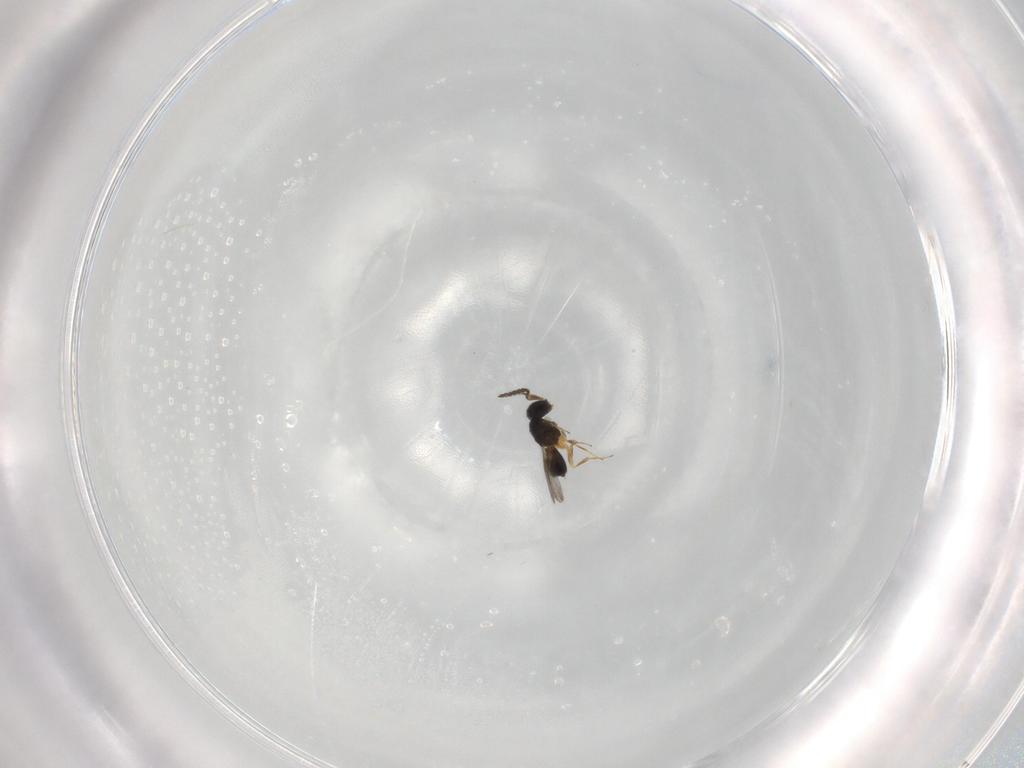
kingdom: Animalia
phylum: Arthropoda
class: Insecta
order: Hymenoptera
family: Scelionidae
